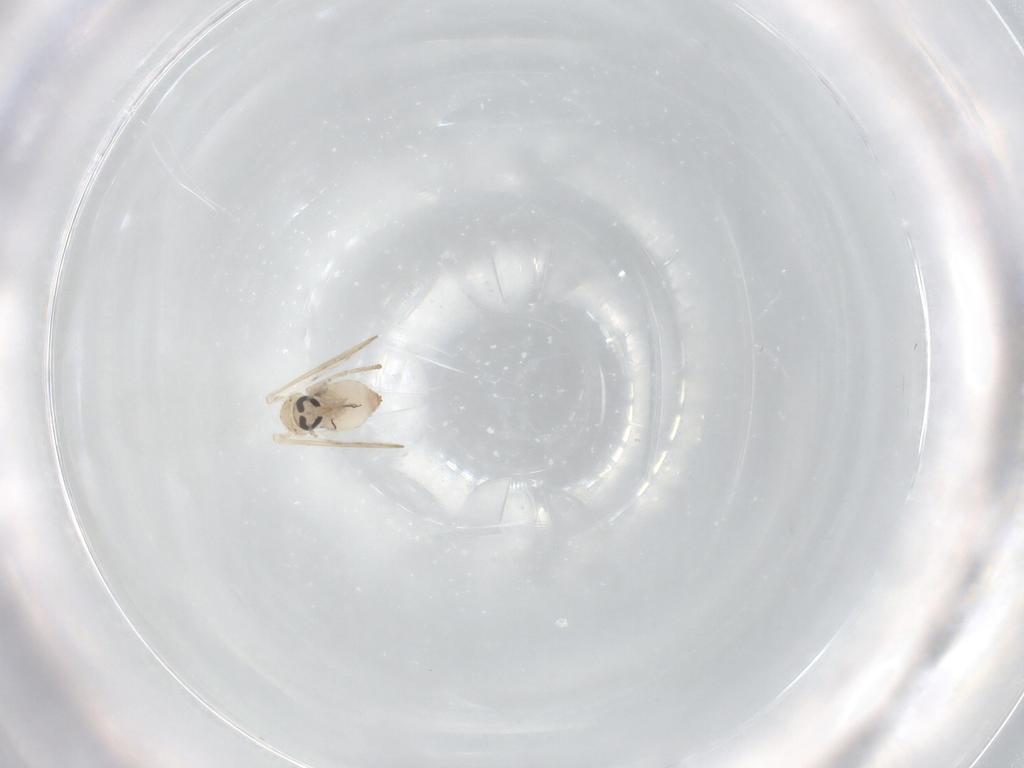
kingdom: Animalia
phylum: Arthropoda
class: Insecta
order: Diptera
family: Psychodidae
